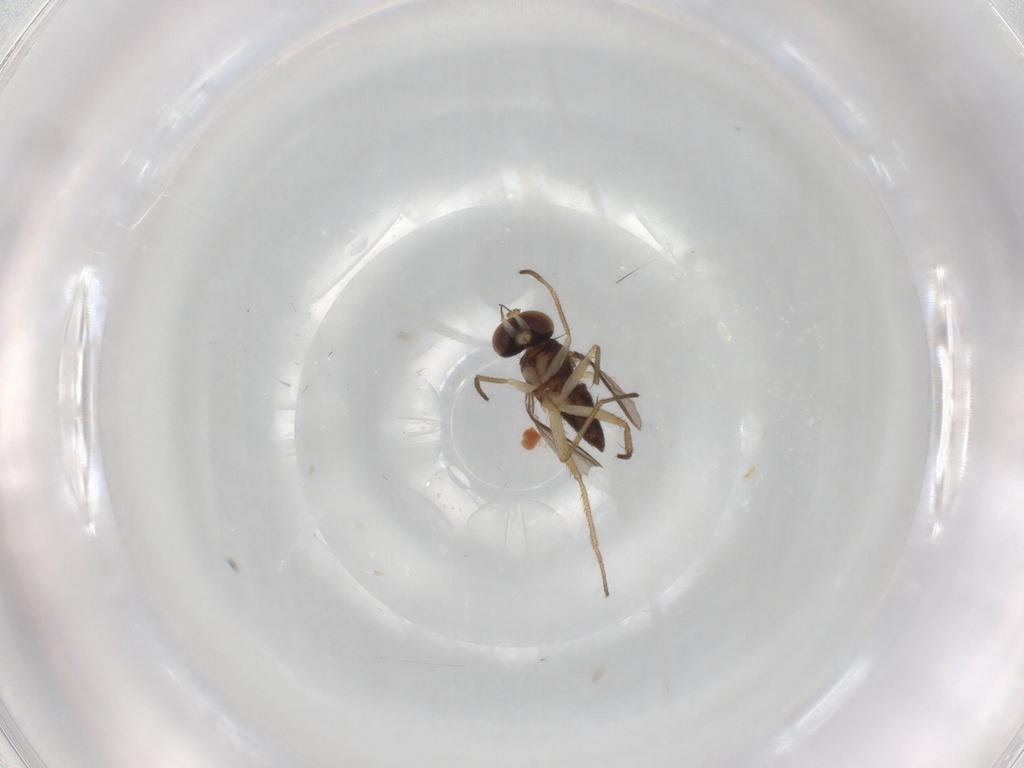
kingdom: Animalia
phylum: Arthropoda
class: Insecta
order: Diptera
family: Dolichopodidae
